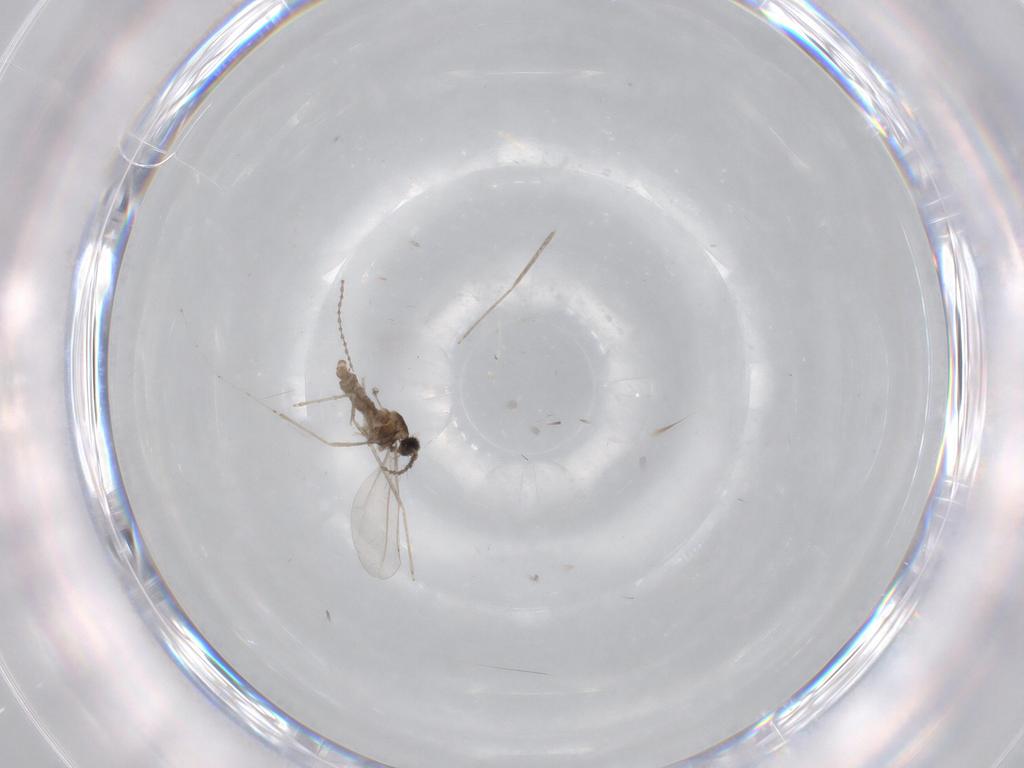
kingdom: Animalia
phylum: Arthropoda
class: Insecta
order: Diptera
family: Cecidomyiidae
